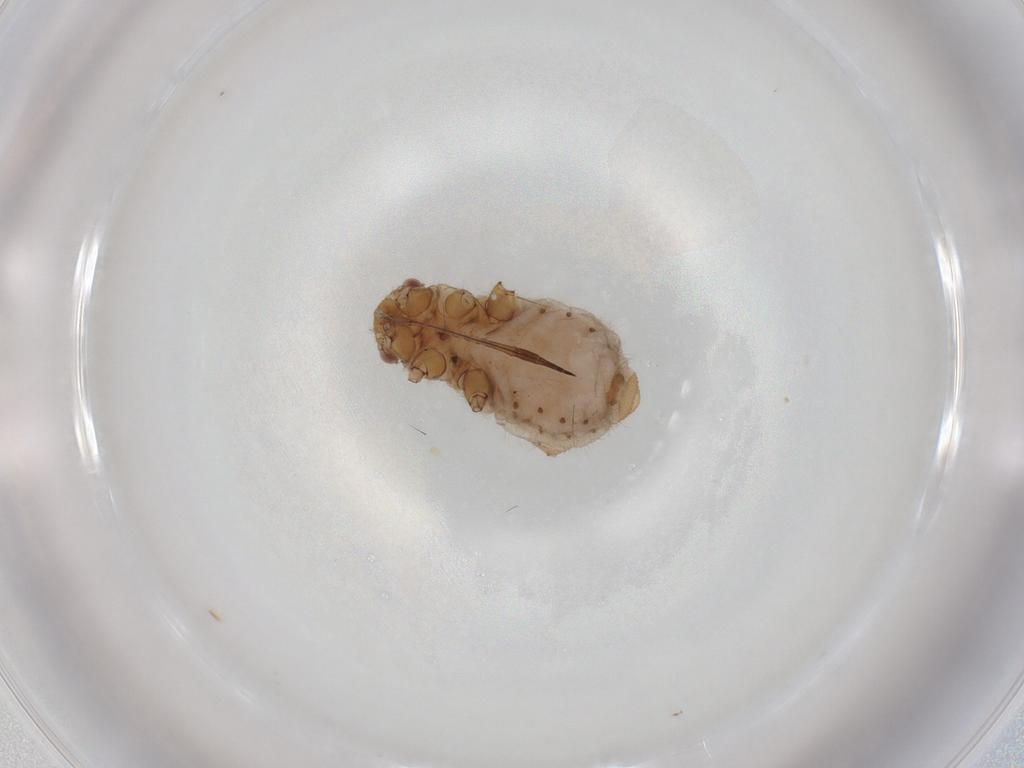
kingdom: Animalia
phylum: Arthropoda
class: Insecta
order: Hemiptera
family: Aphididae
